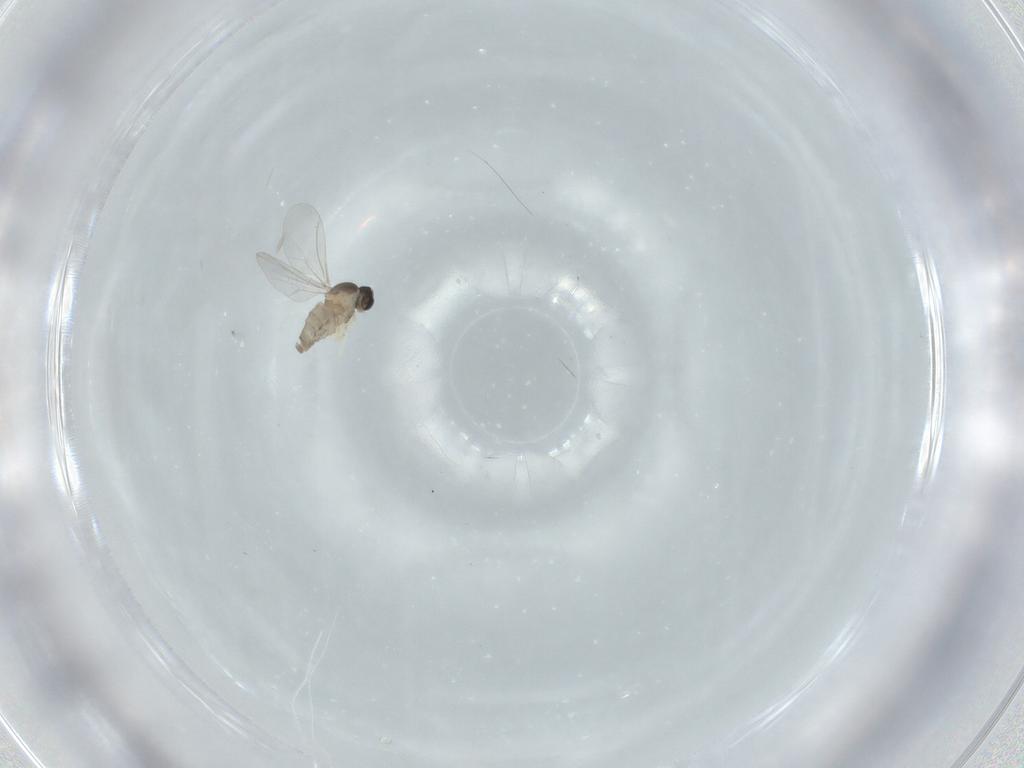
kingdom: Animalia
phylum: Arthropoda
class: Insecta
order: Diptera
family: Cecidomyiidae
